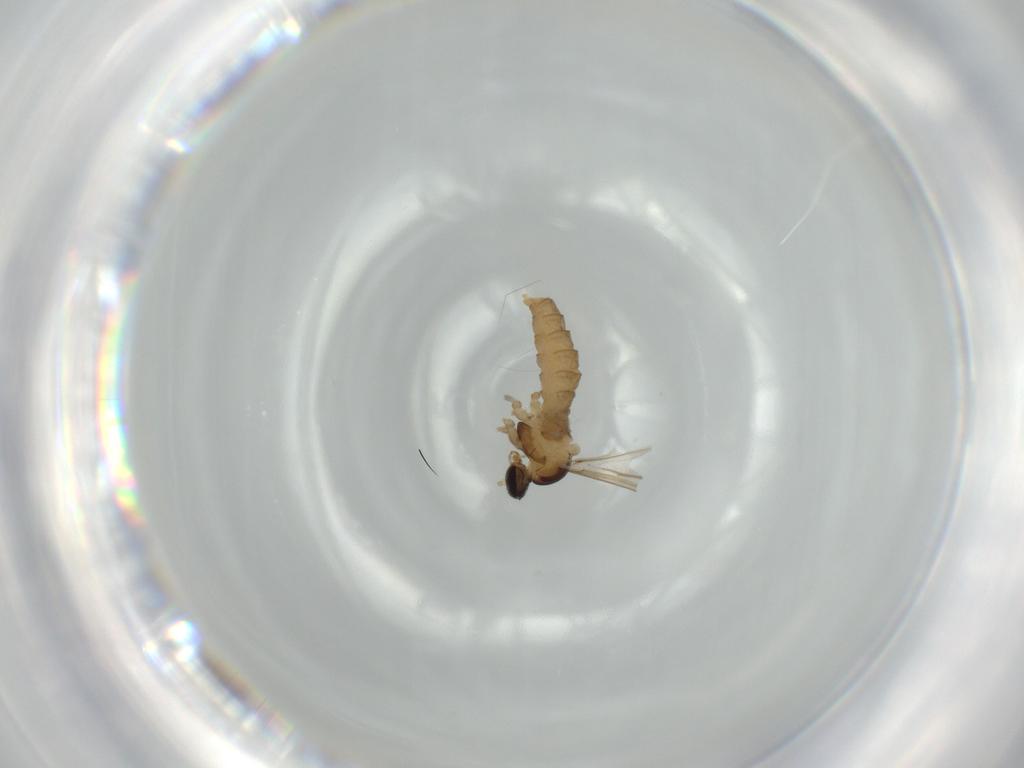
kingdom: Animalia
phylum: Arthropoda
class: Insecta
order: Diptera
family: Cecidomyiidae
